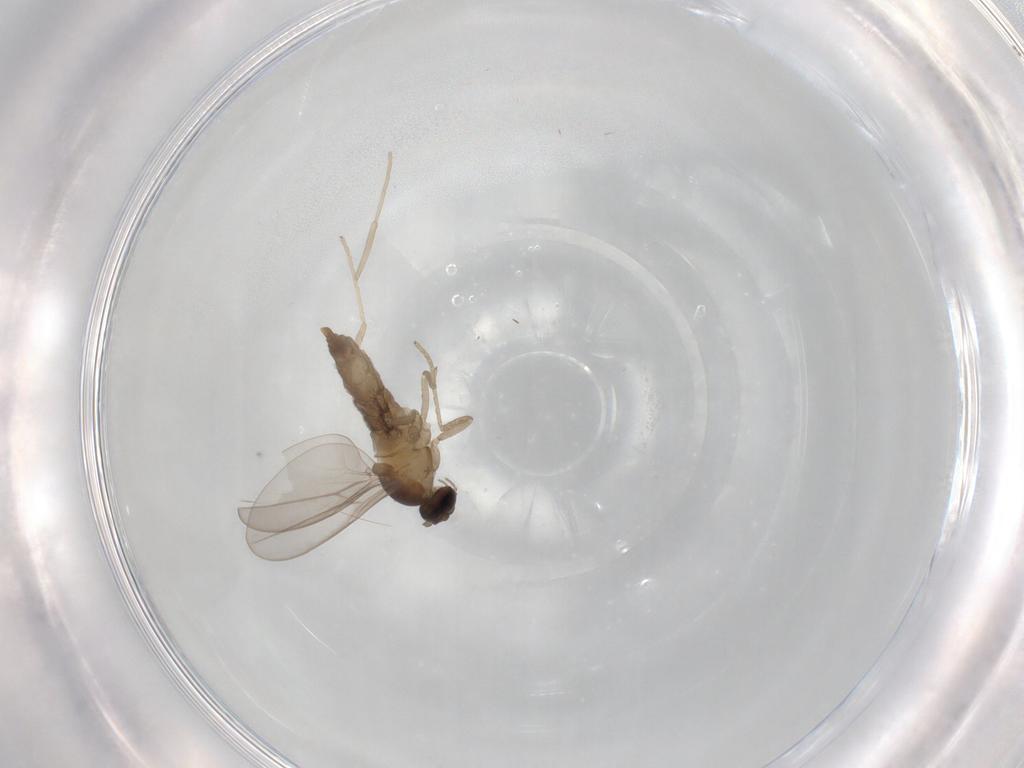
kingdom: Animalia
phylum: Arthropoda
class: Insecta
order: Diptera
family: Cecidomyiidae
